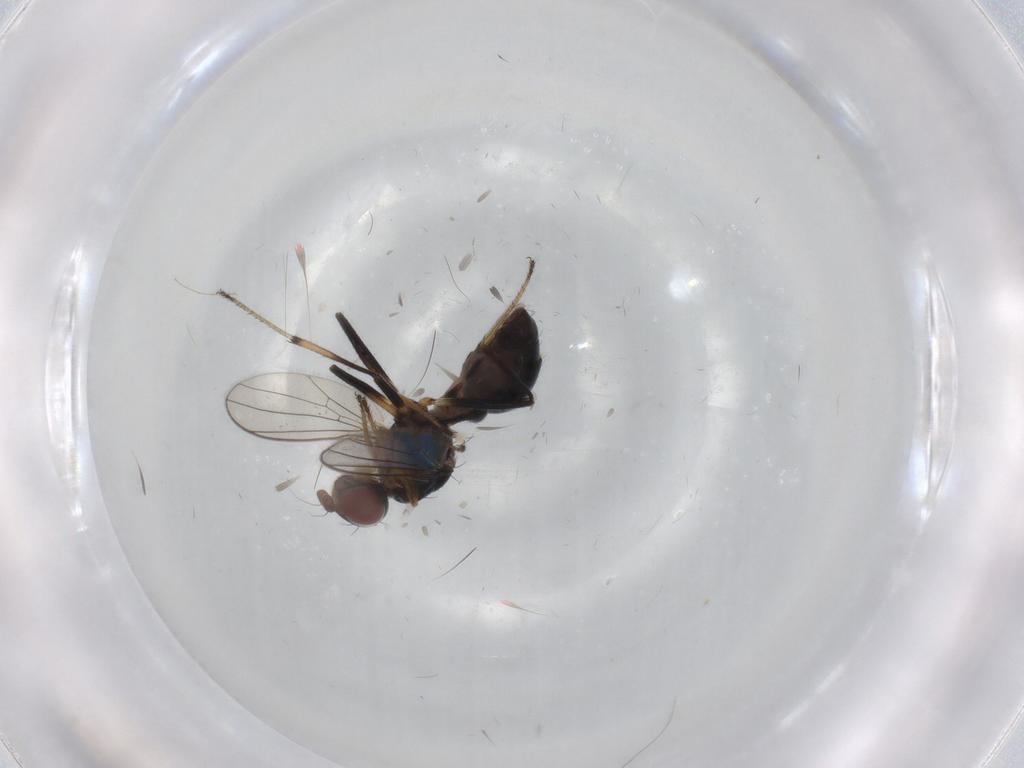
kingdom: Animalia
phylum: Arthropoda
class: Insecta
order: Diptera
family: Sepsidae
